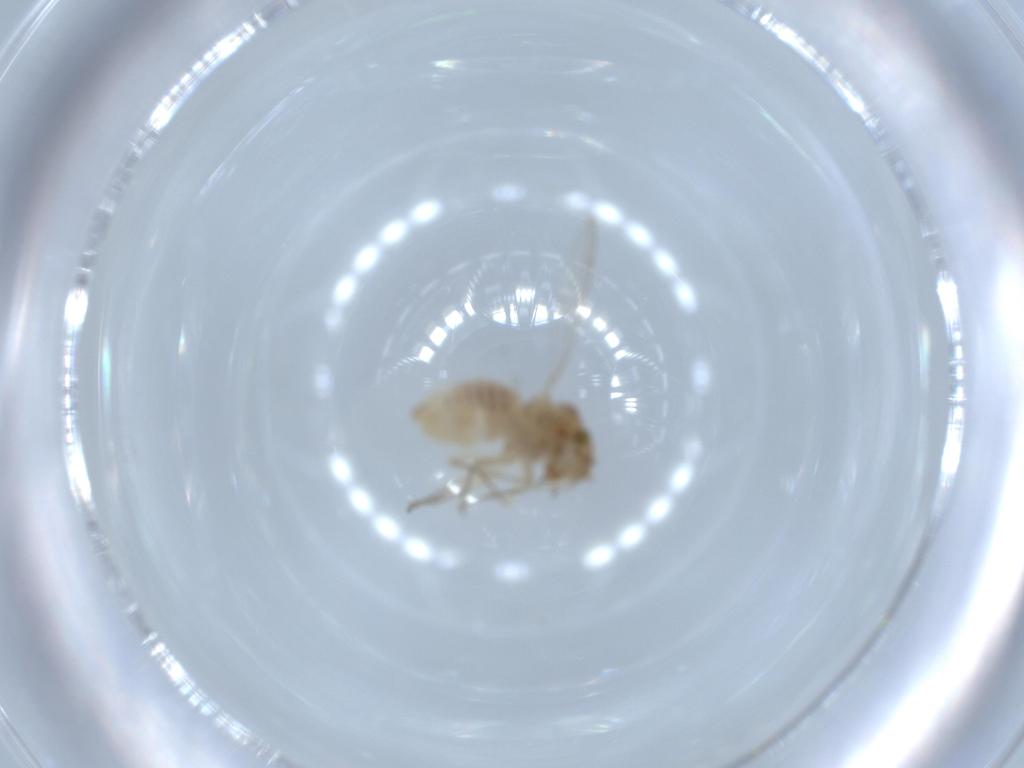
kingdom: Animalia
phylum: Arthropoda
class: Insecta
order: Psocodea
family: Lachesillidae
